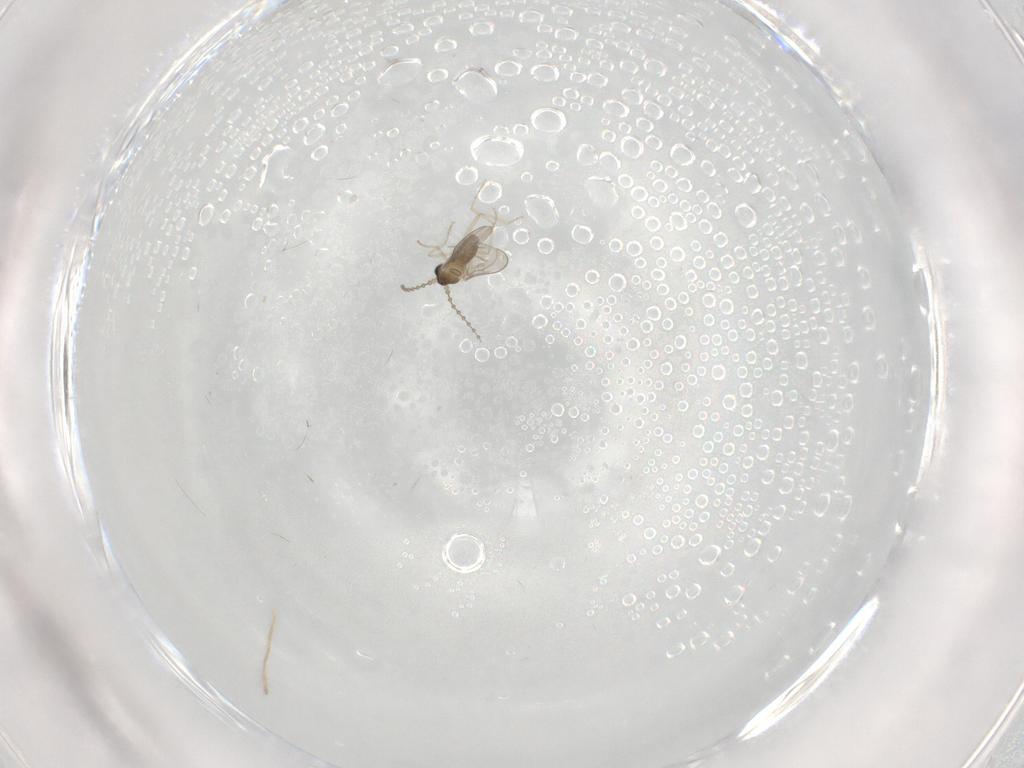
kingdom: Animalia
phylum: Arthropoda
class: Insecta
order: Diptera
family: Cecidomyiidae
